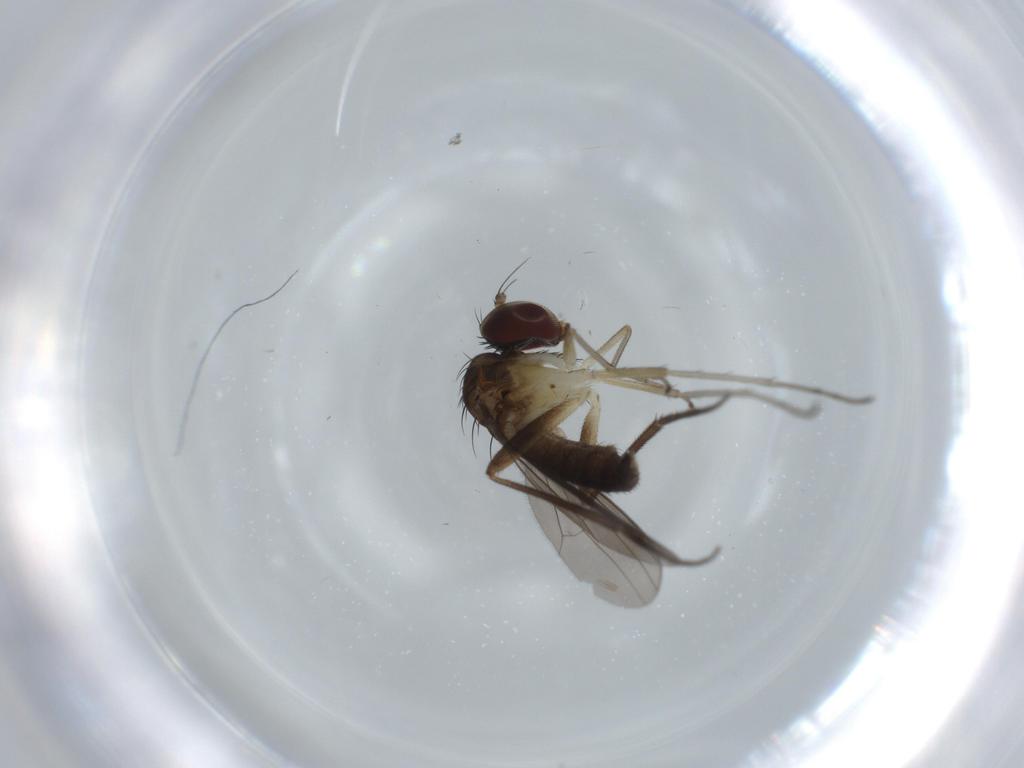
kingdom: Animalia
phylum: Arthropoda
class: Insecta
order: Diptera
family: Dolichopodidae
